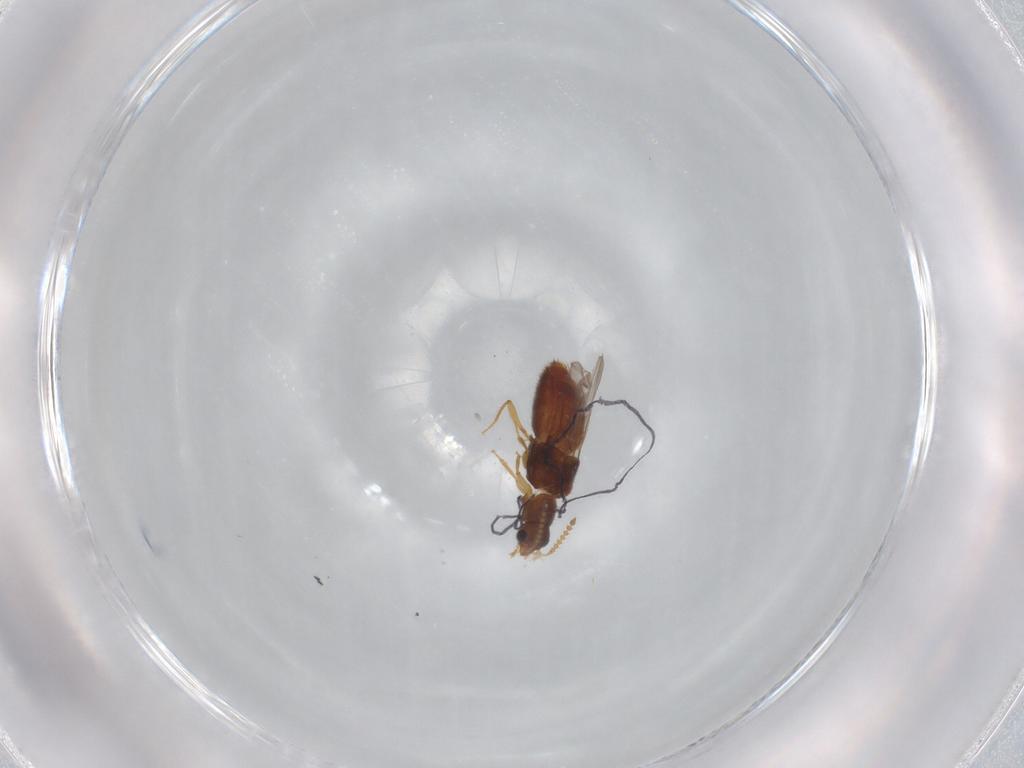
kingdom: Animalia
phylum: Arthropoda
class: Insecta
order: Coleoptera
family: Staphylinidae
